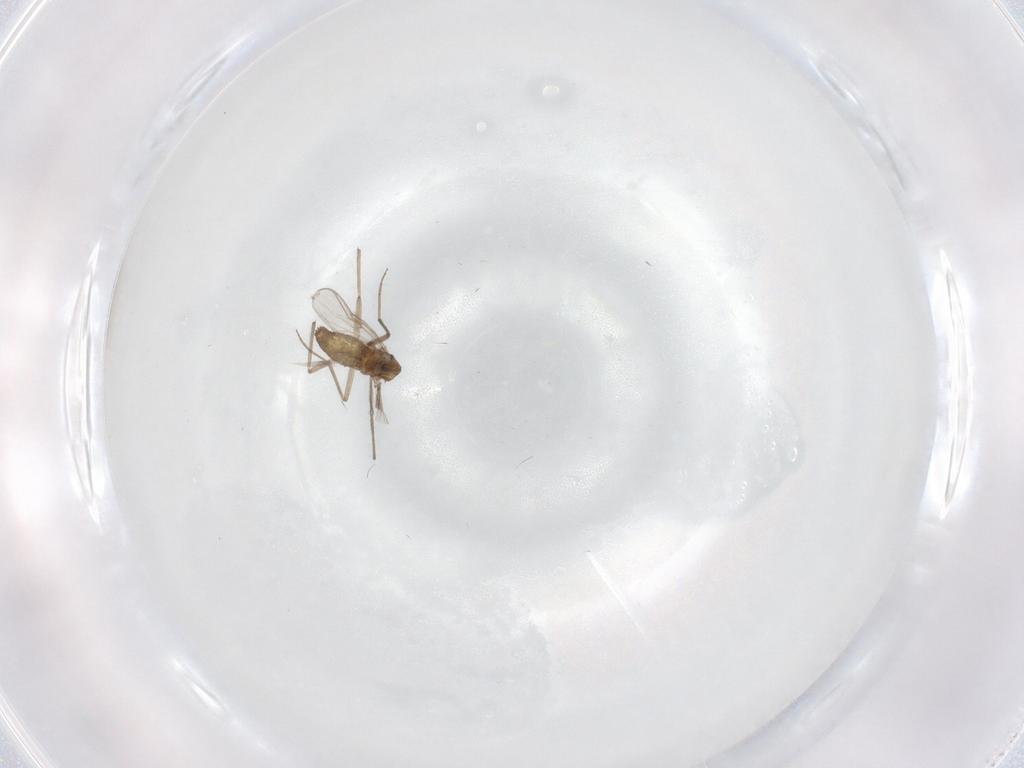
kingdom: Animalia
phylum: Arthropoda
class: Insecta
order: Diptera
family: Chironomidae
